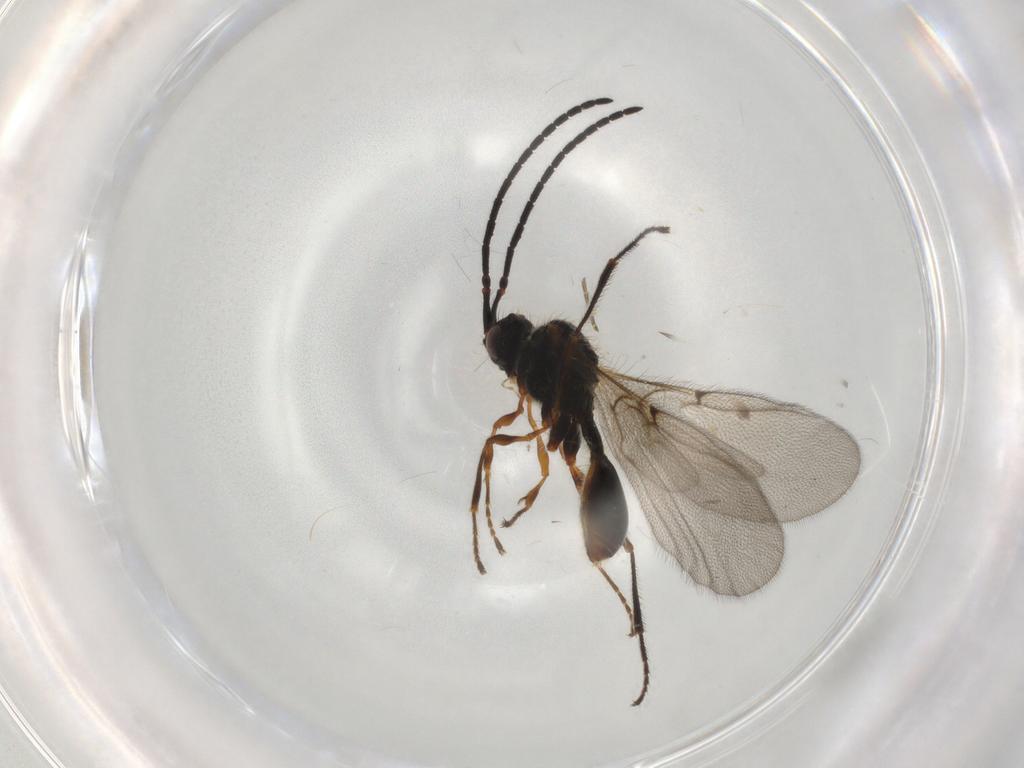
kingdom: Animalia
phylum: Arthropoda
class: Insecta
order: Hymenoptera
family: Diapriidae
